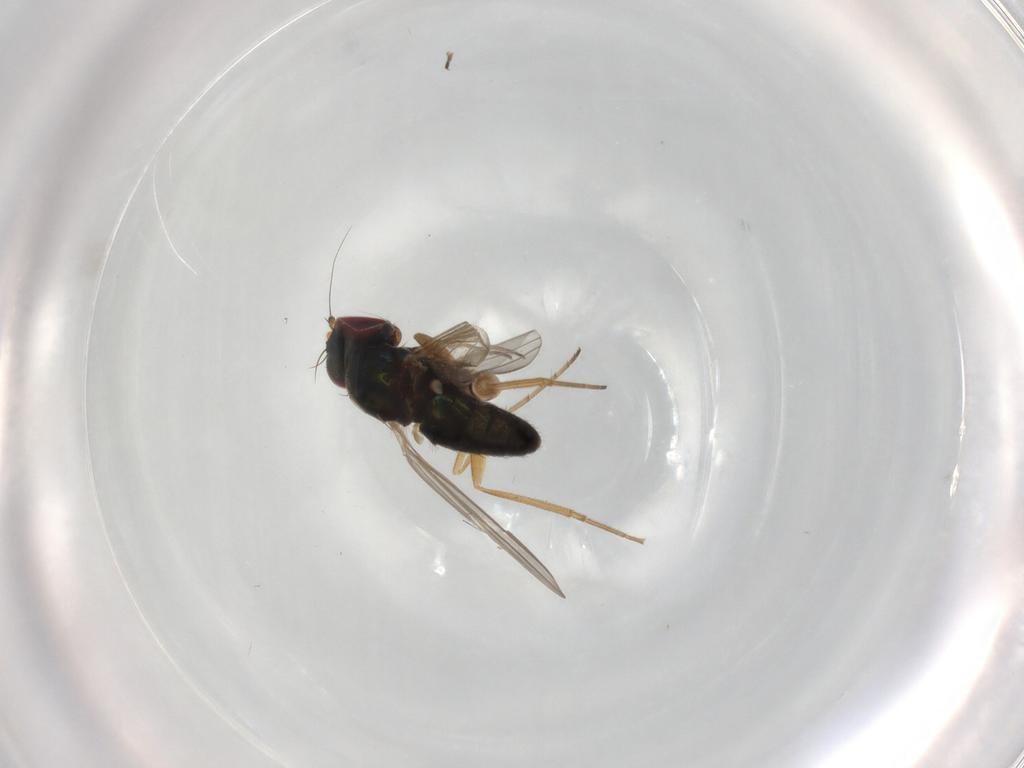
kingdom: Animalia
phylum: Arthropoda
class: Insecta
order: Diptera
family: Dolichopodidae
